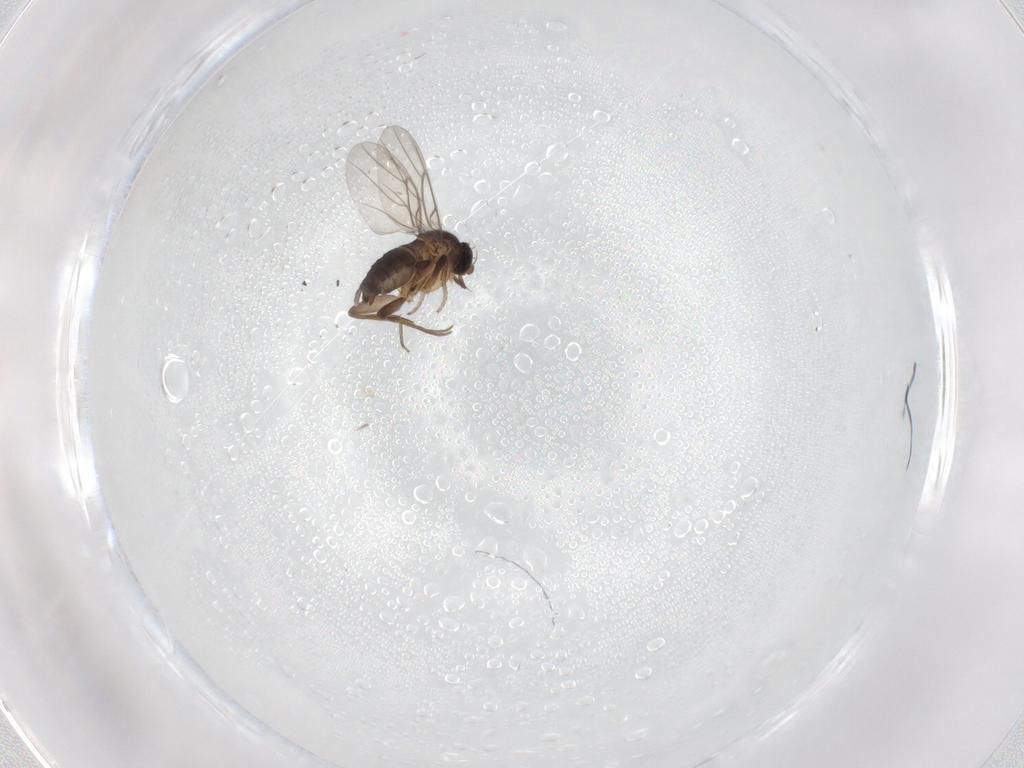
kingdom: Animalia
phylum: Arthropoda
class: Insecta
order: Diptera
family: Phoridae
